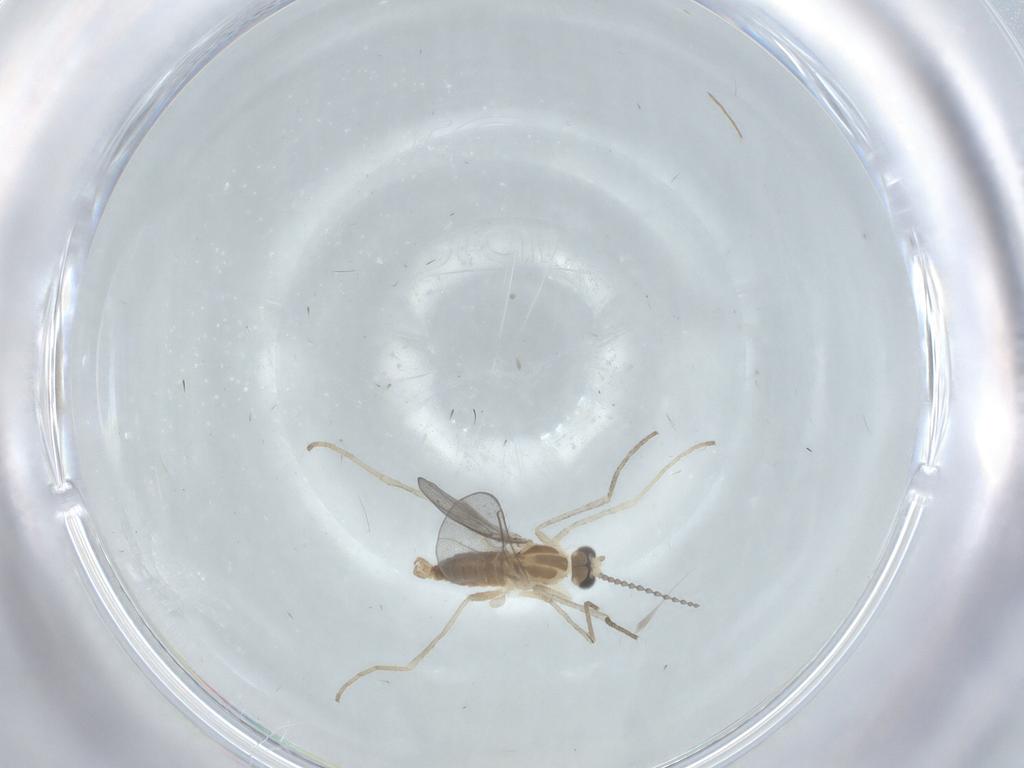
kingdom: Animalia
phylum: Arthropoda
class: Insecta
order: Diptera
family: Cecidomyiidae
